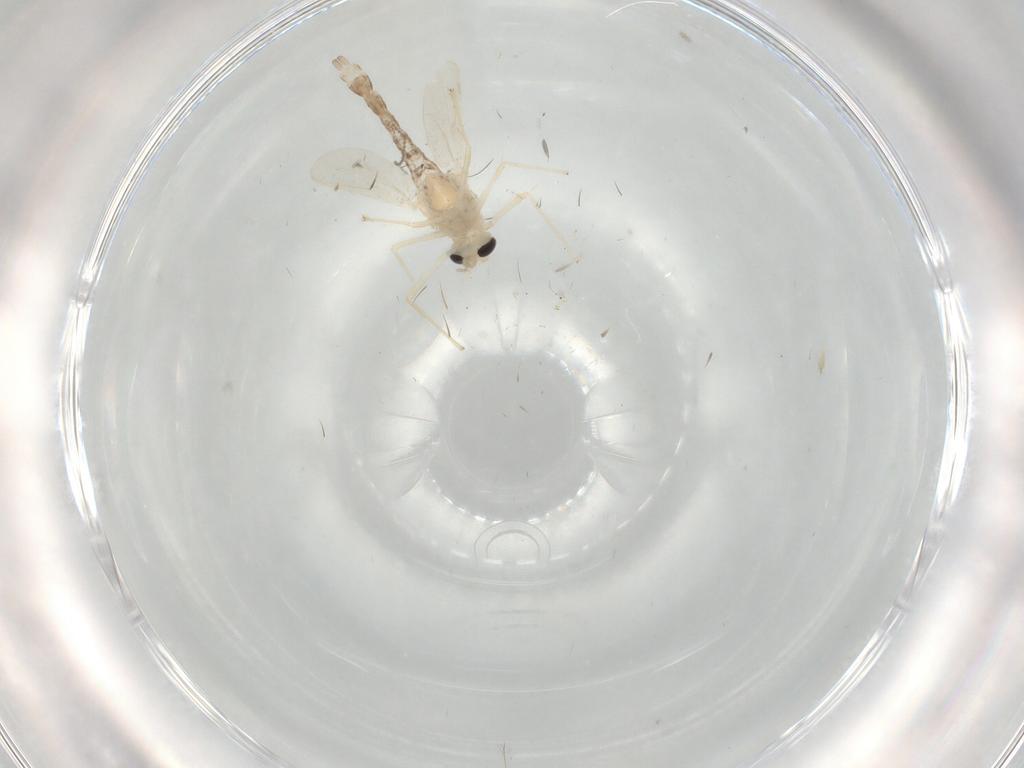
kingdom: Animalia
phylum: Arthropoda
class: Insecta
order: Diptera
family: Chironomidae
